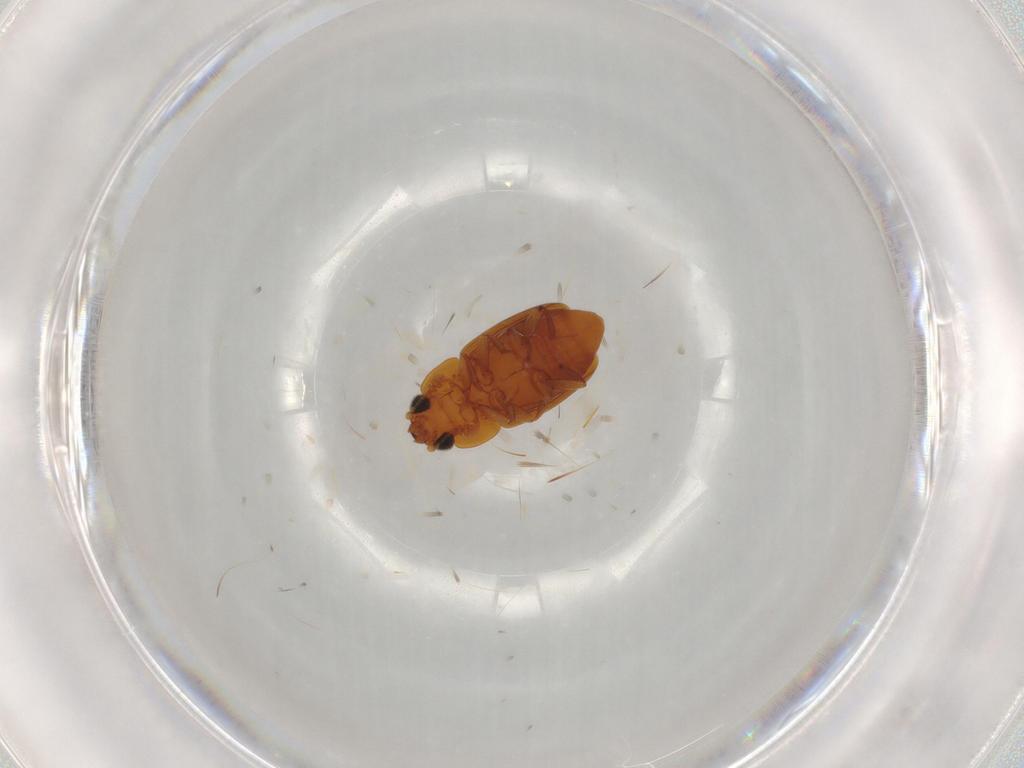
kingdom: Animalia
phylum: Arthropoda
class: Insecta
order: Coleoptera
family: Nitidulidae
